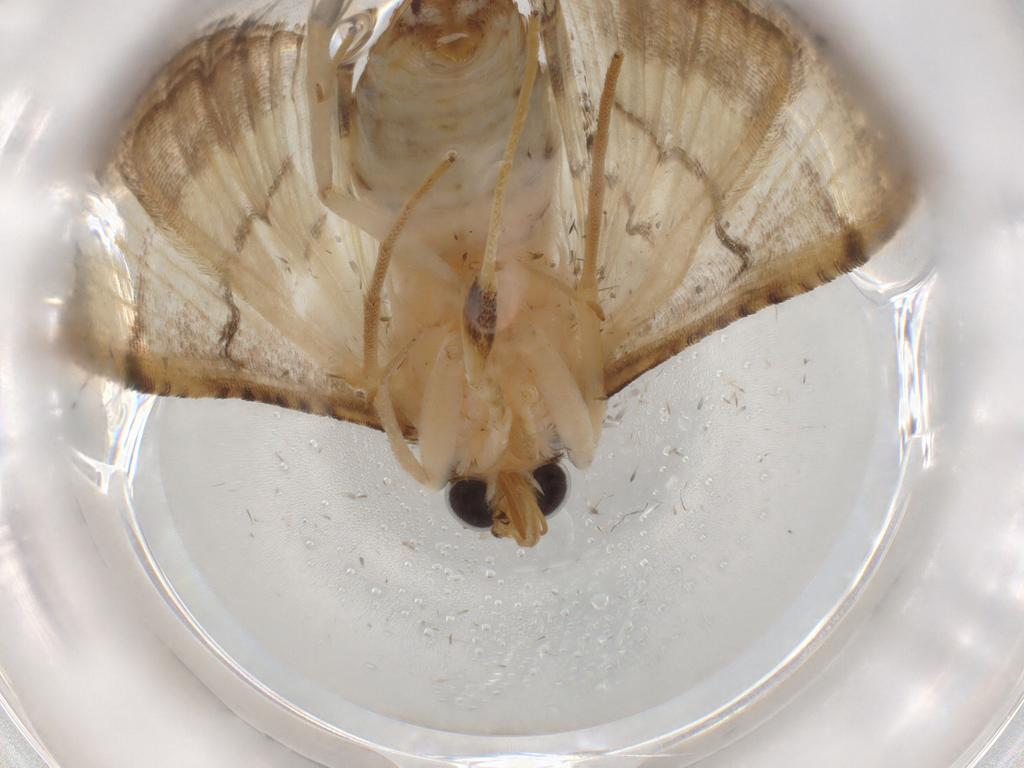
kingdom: Animalia
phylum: Arthropoda
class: Insecta
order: Lepidoptera
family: Crambidae
